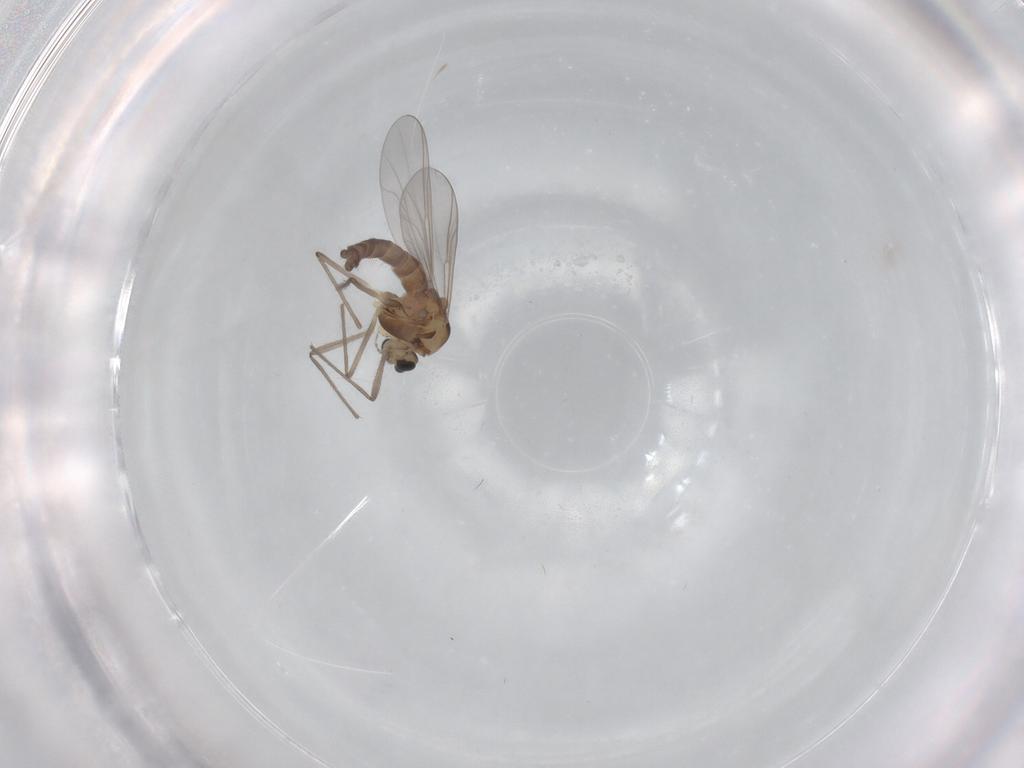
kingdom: Animalia
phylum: Arthropoda
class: Insecta
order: Diptera
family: Chironomidae
